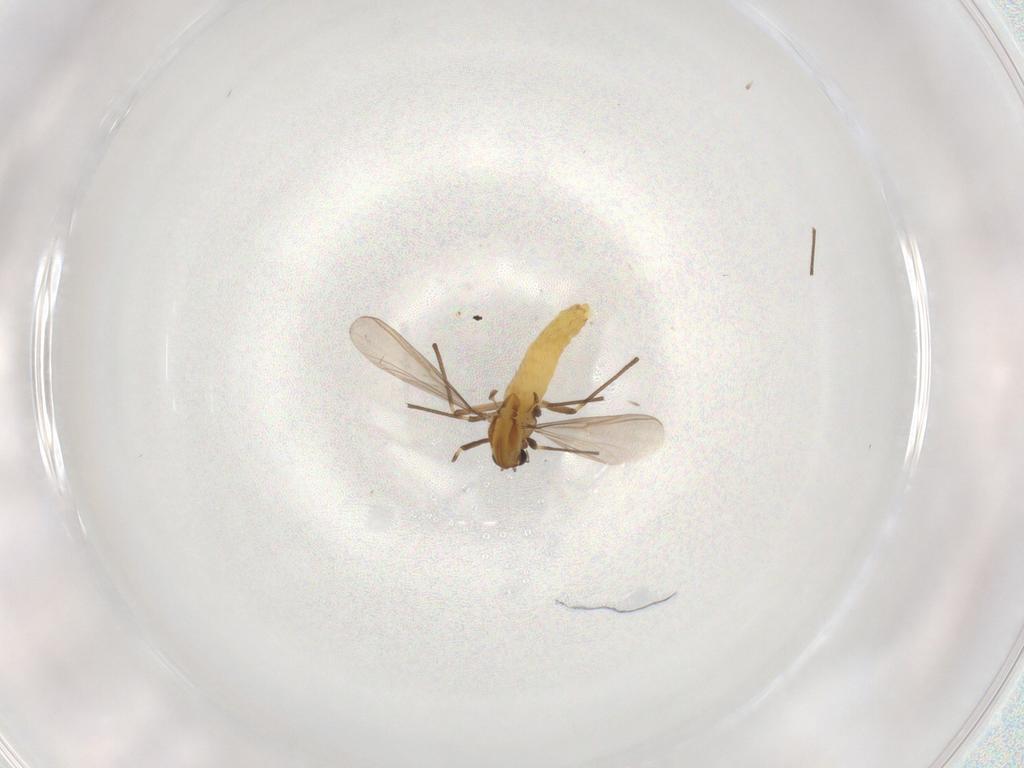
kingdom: Animalia
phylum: Arthropoda
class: Insecta
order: Diptera
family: Chironomidae
